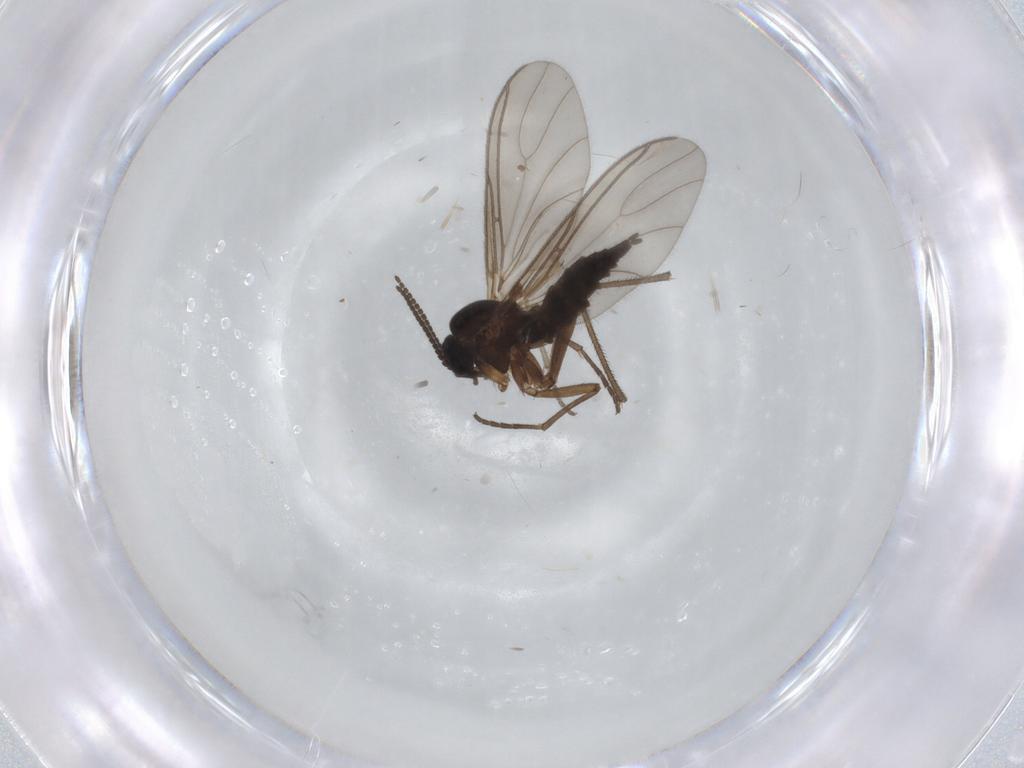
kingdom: Animalia
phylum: Arthropoda
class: Insecta
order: Diptera
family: Sciaridae
